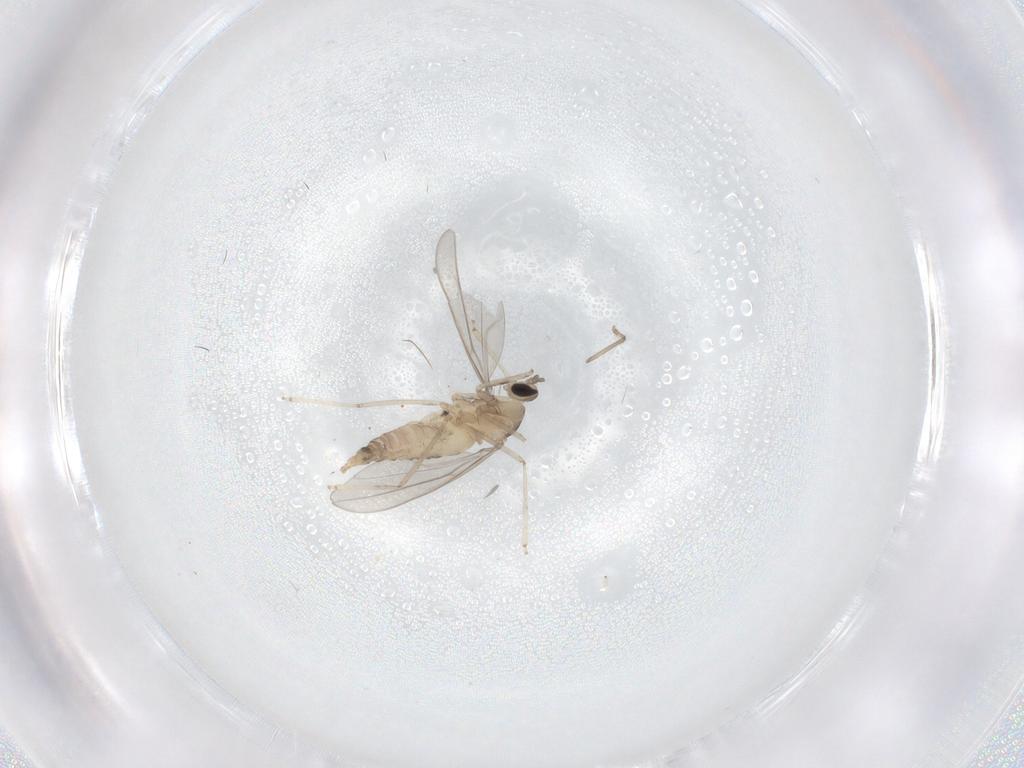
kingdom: Animalia
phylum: Arthropoda
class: Insecta
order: Diptera
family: Cecidomyiidae
